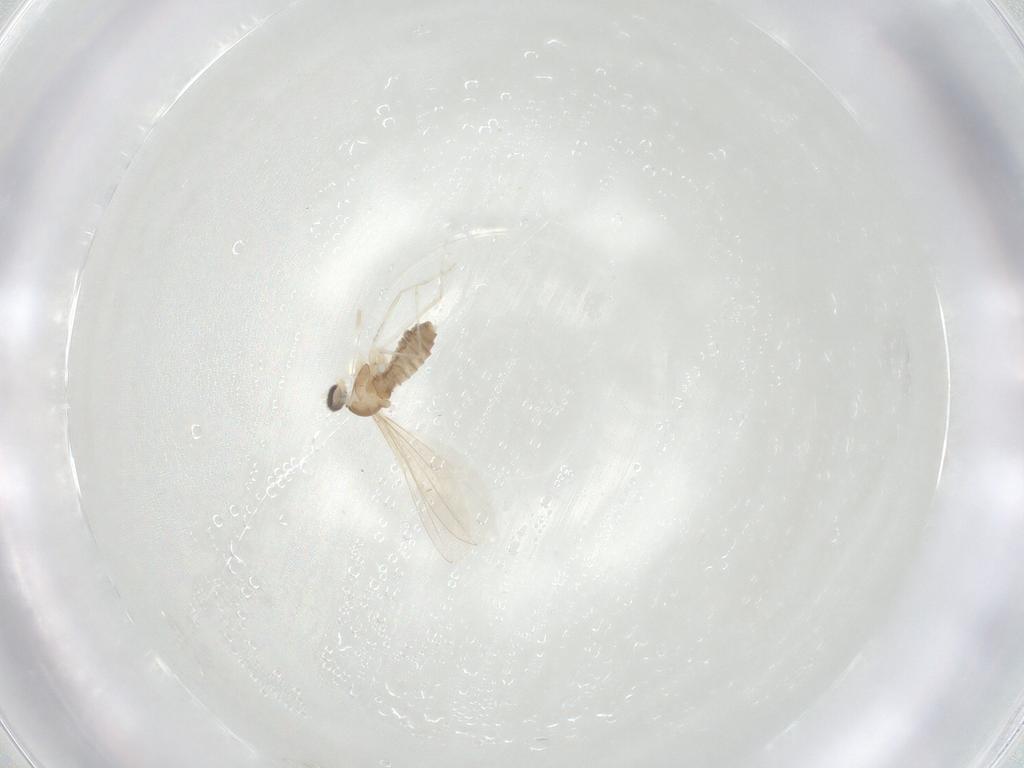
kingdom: Animalia
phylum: Arthropoda
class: Insecta
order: Diptera
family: Cecidomyiidae
